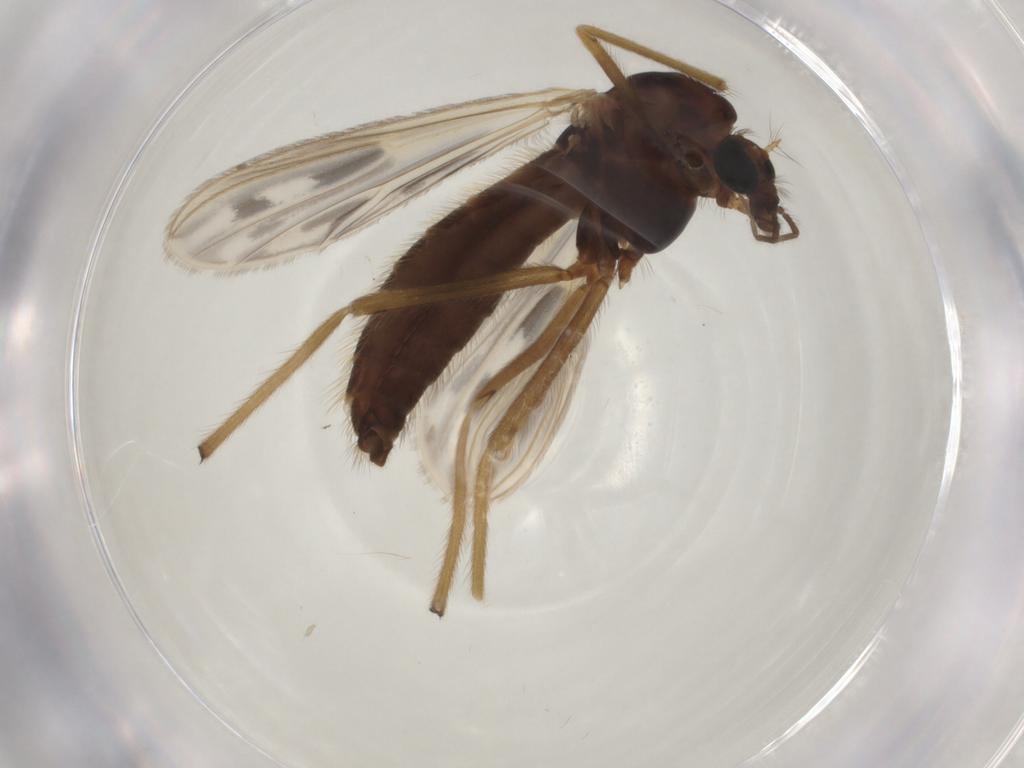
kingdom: Animalia
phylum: Arthropoda
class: Insecta
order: Diptera
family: Chironomidae
